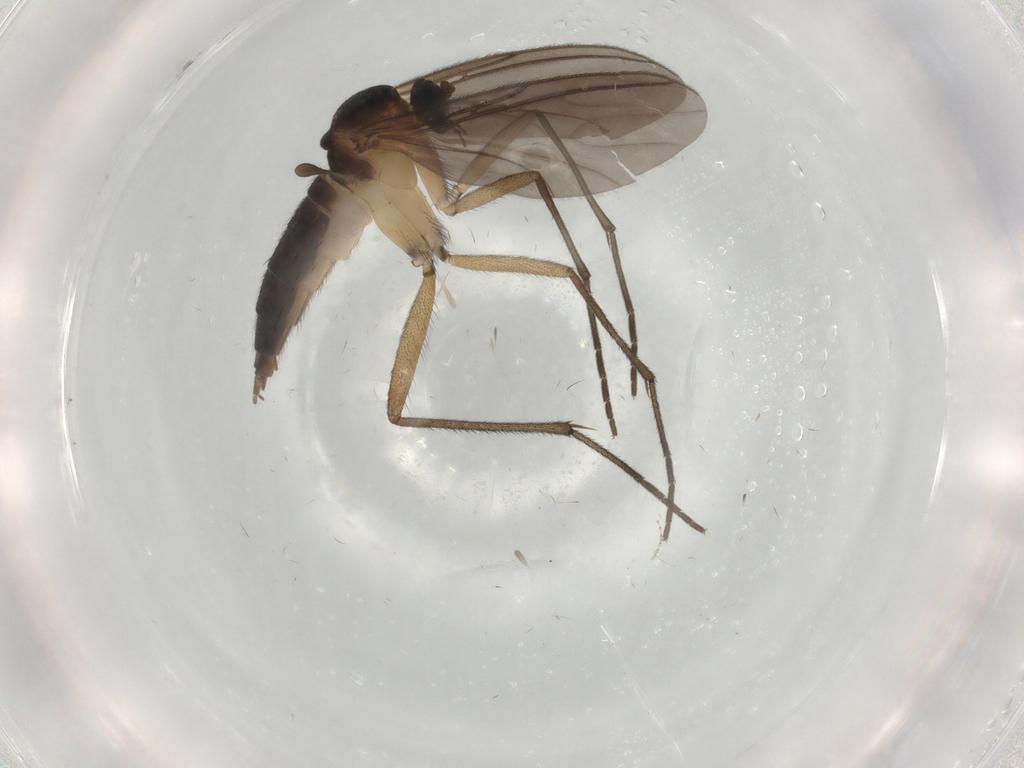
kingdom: Animalia
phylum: Arthropoda
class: Insecta
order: Diptera
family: Sciaridae
